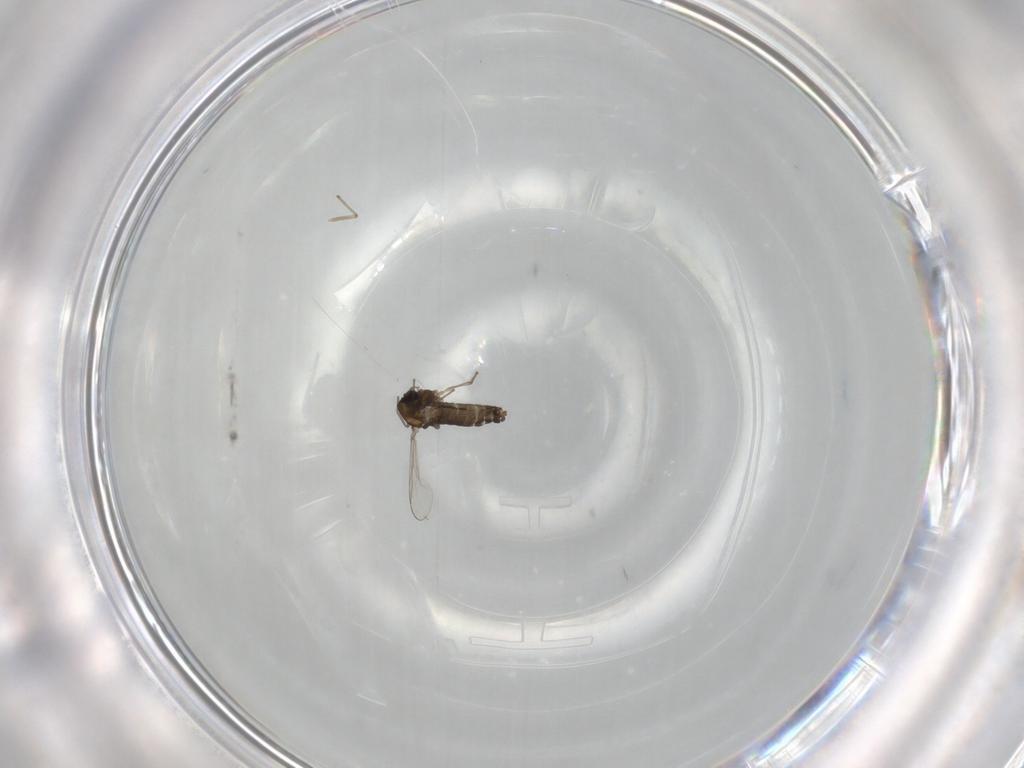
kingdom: Animalia
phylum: Arthropoda
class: Insecta
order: Diptera
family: Chironomidae
